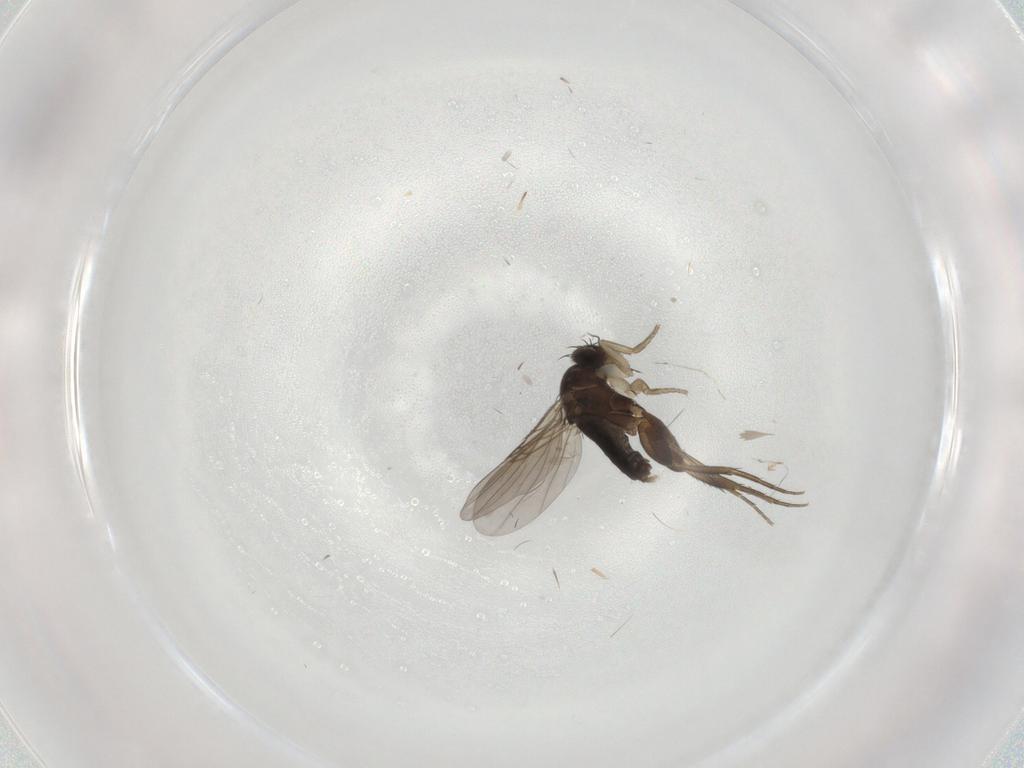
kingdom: Animalia
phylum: Arthropoda
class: Insecta
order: Diptera
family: Phoridae
